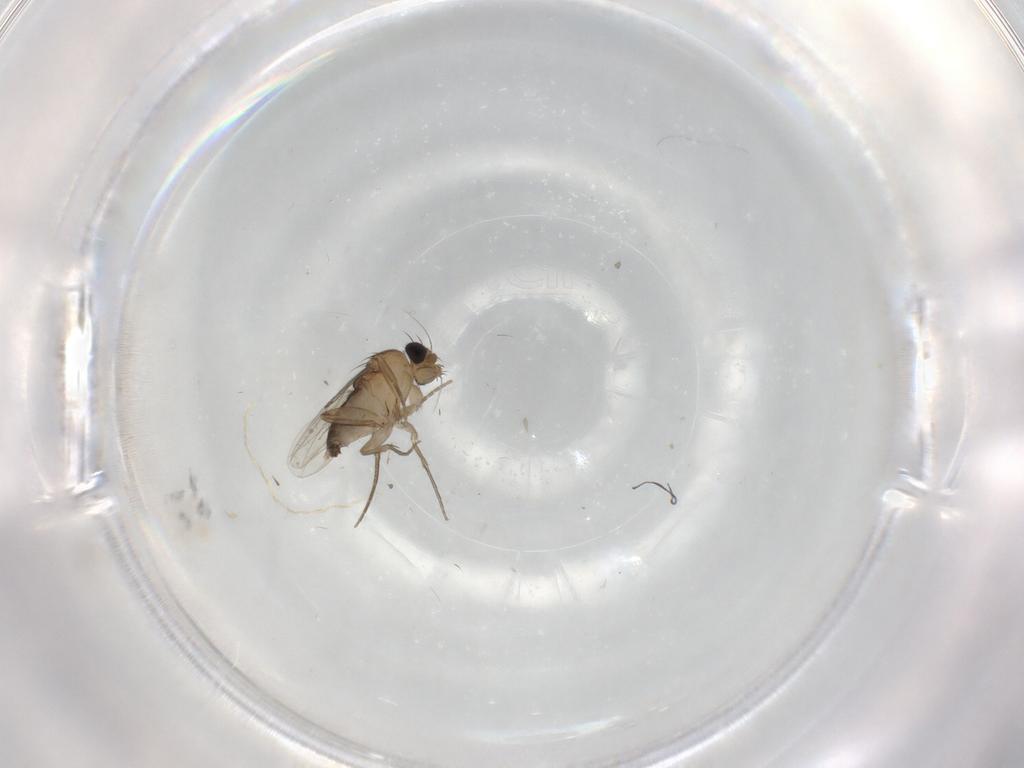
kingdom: Animalia
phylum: Arthropoda
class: Insecta
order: Diptera
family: Phoridae
